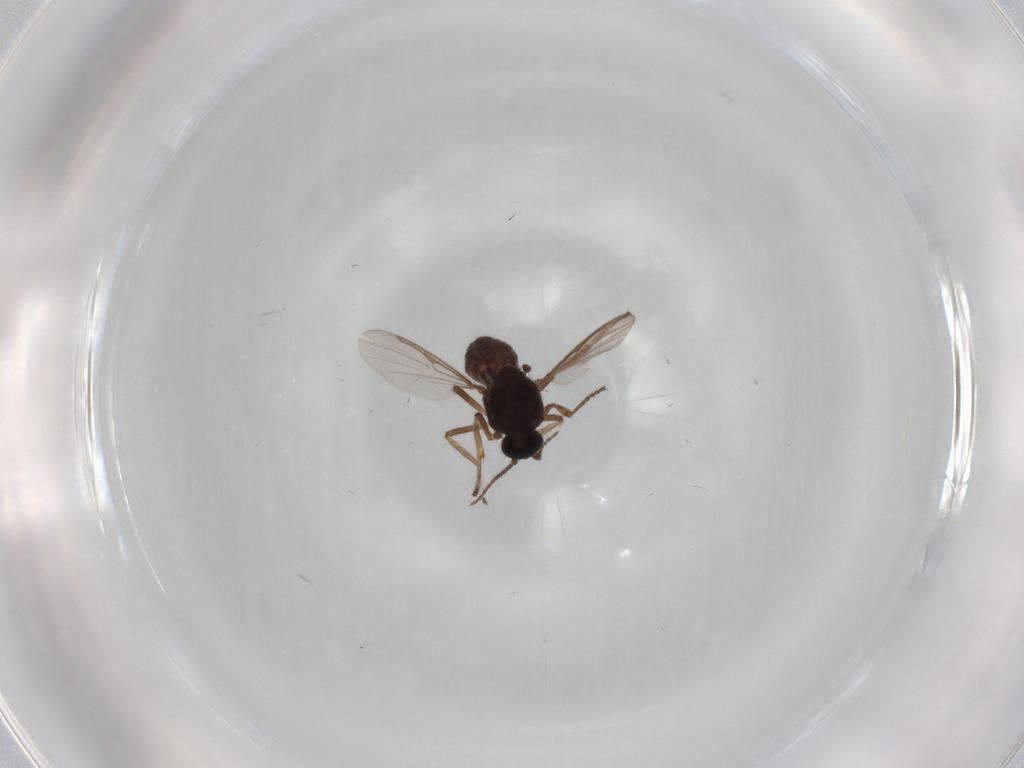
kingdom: Animalia
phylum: Arthropoda
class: Insecta
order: Diptera
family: Ceratopogonidae
